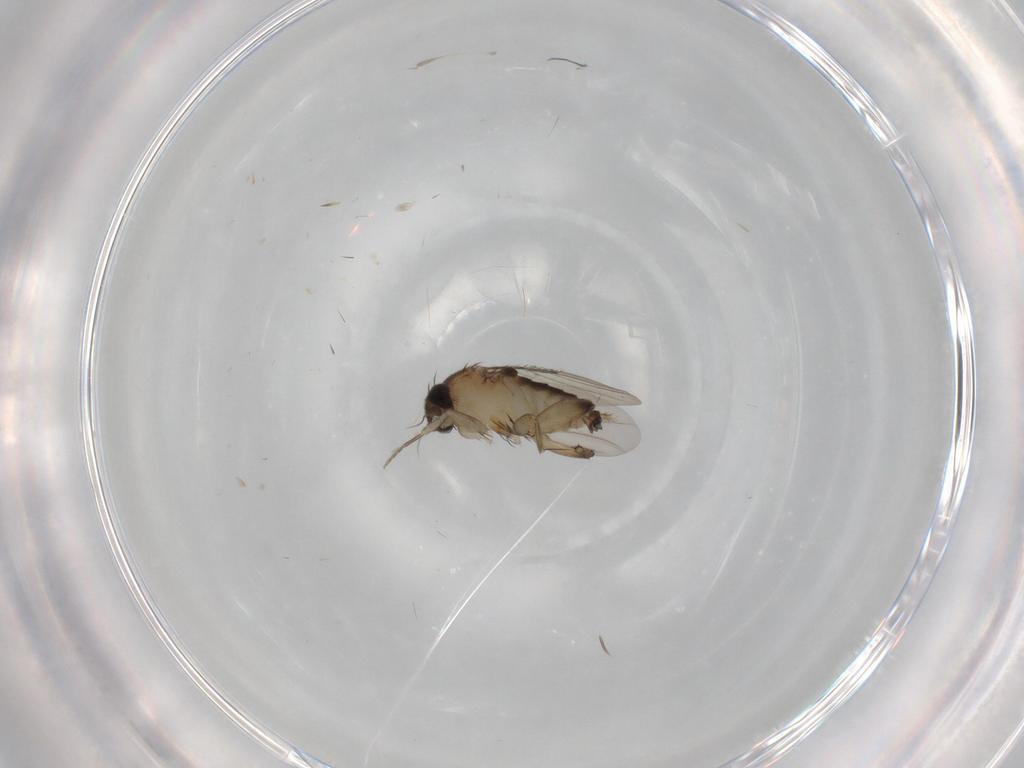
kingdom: Animalia
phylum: Arthropoda
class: Insecta
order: Diptera
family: Phoridae
